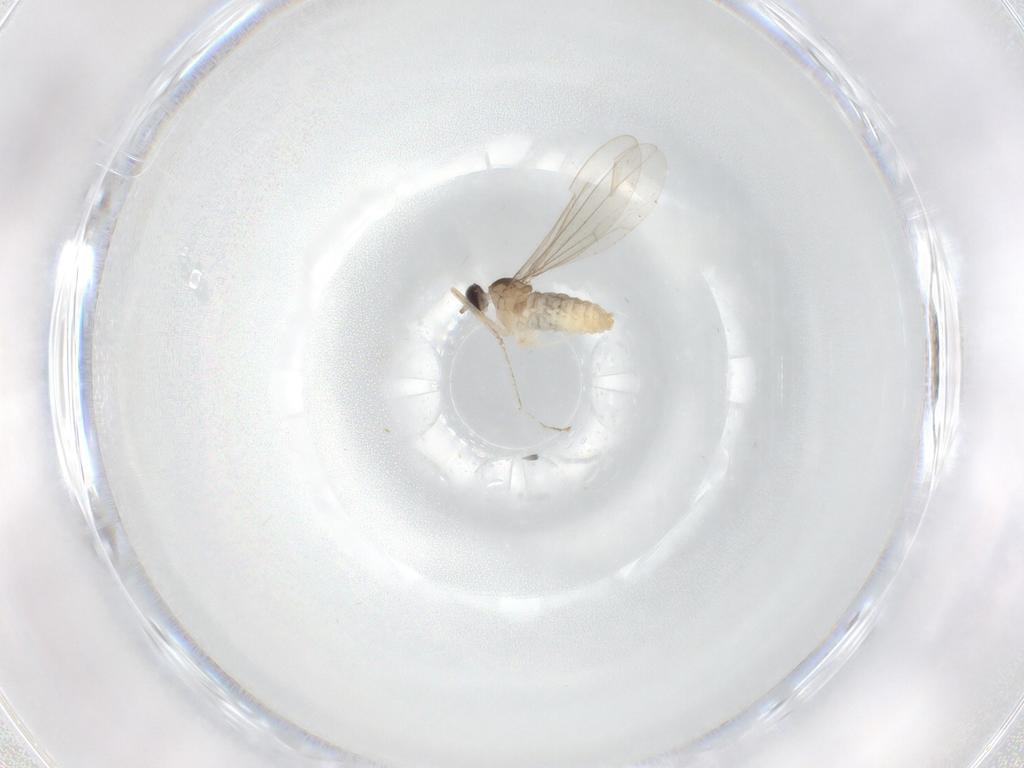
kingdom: Animalia
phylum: Arthropoda
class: Insecta
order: Diptera
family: Cecidomyiidae
